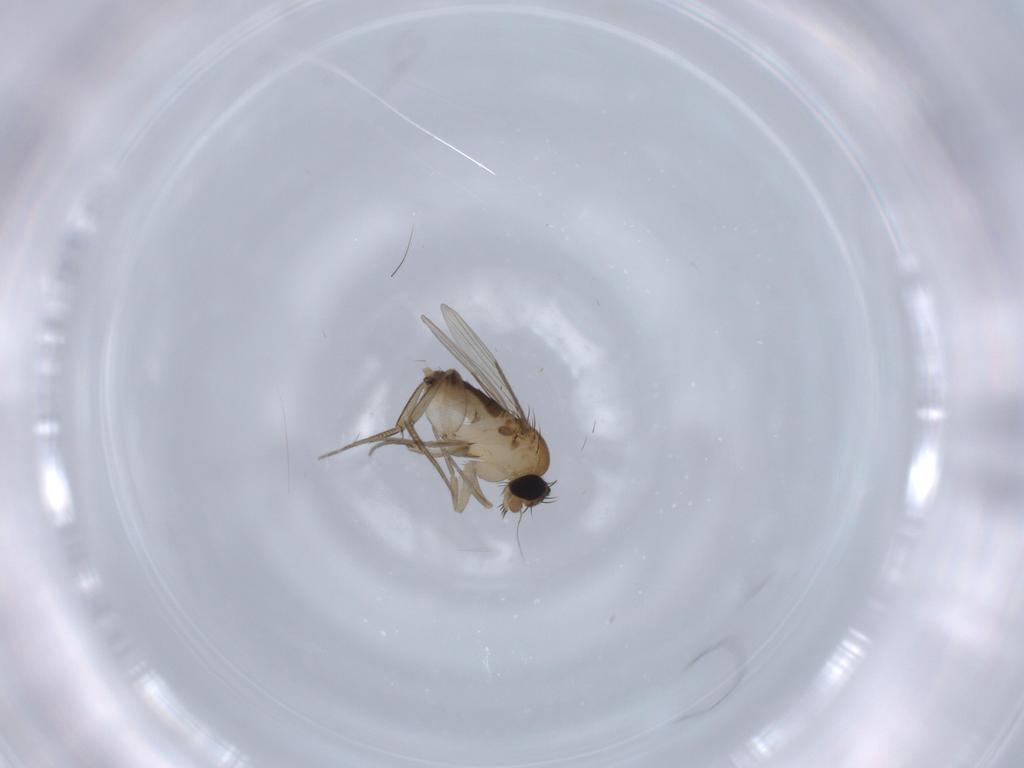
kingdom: Animalia
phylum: Arthropoda
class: Insecta
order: Diptera
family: Phoridae
